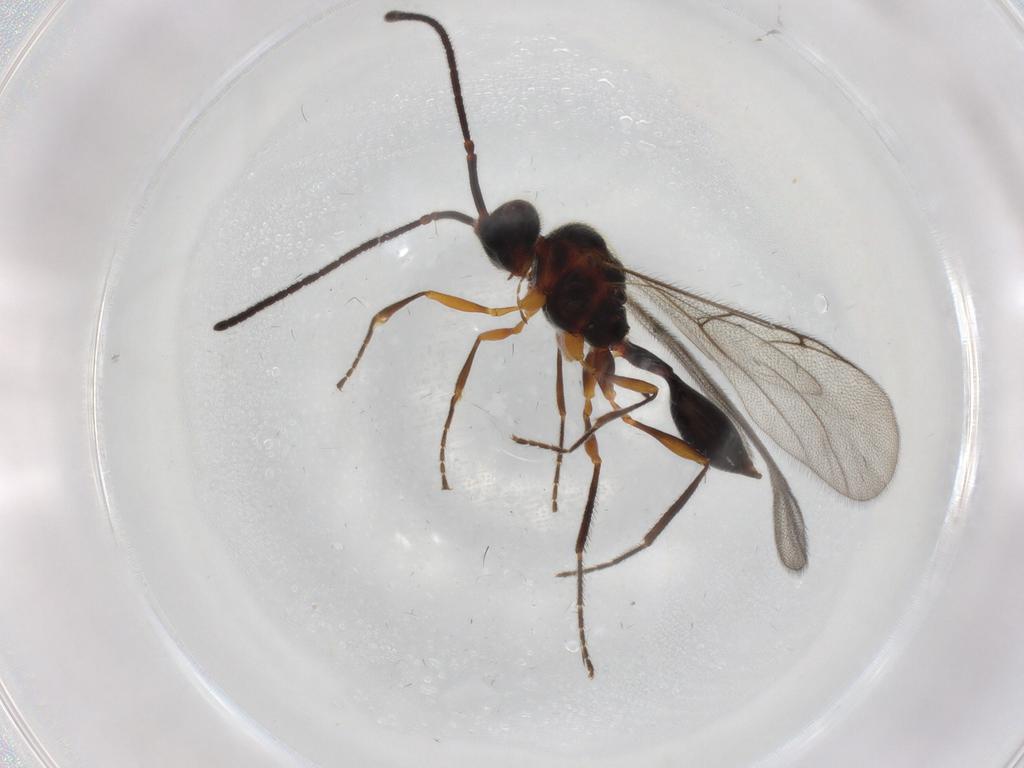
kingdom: Animalia
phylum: Arthropoda
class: Insecta
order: Hymenoptera
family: Diapriidae
